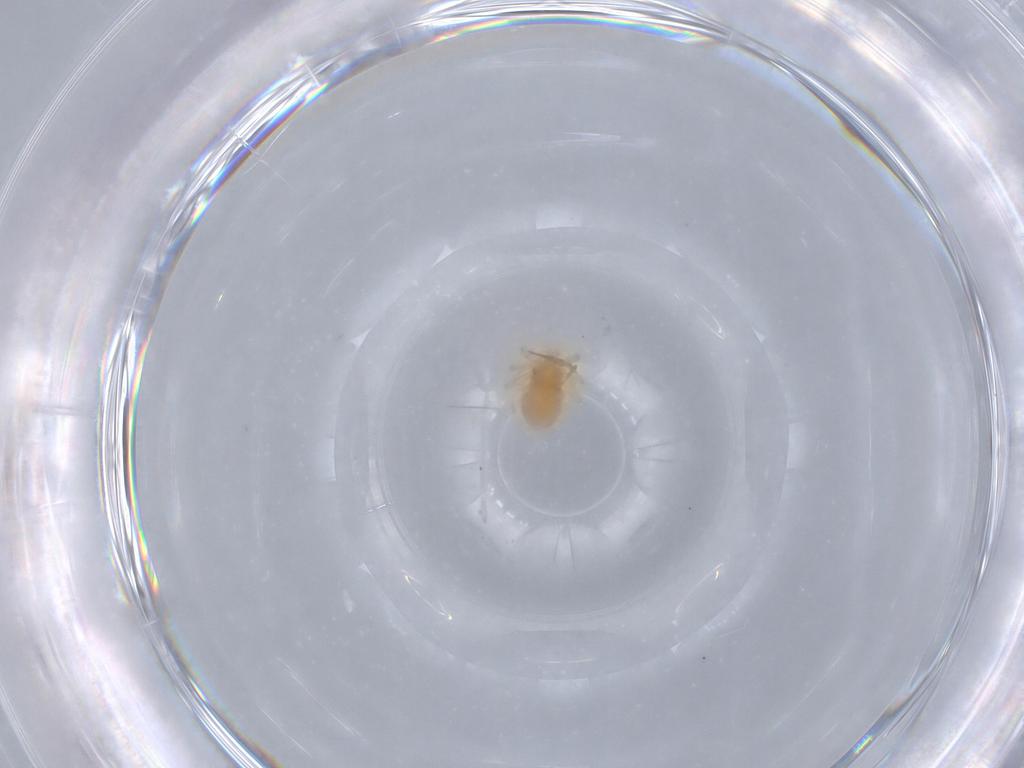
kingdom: Animalia
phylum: Arthropoda
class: Arachnida
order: Trombidiformes
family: Anystidae
